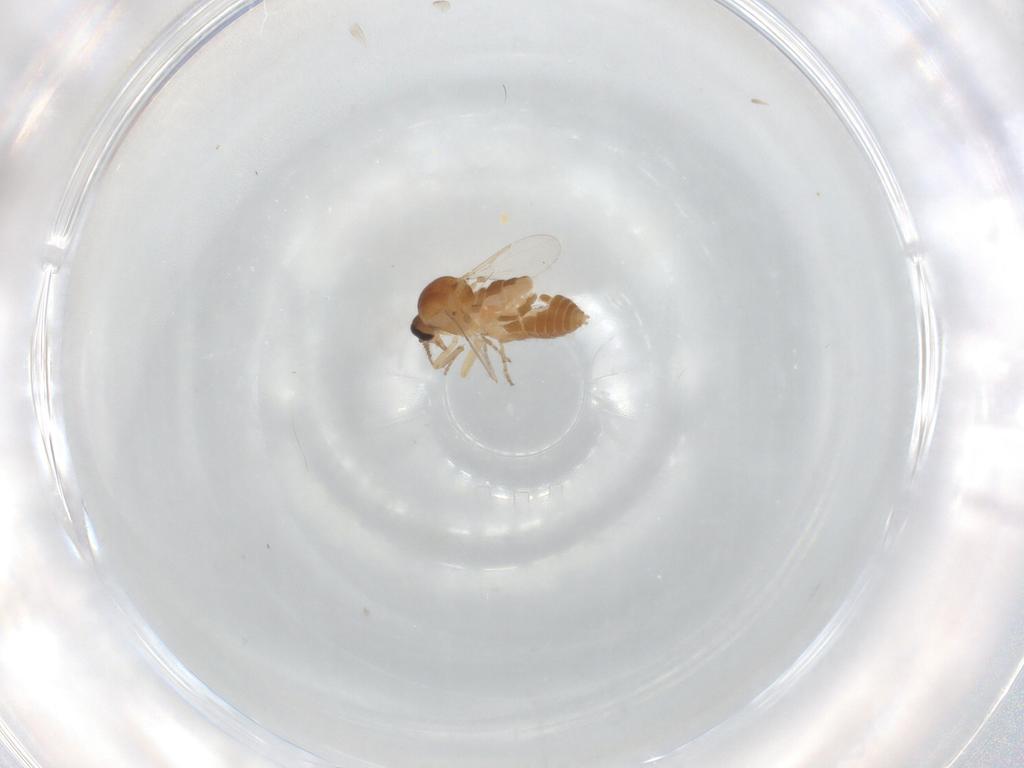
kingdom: Animalia
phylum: Arthropoda
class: Insecta
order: Diptera
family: Ceratopogonidae
